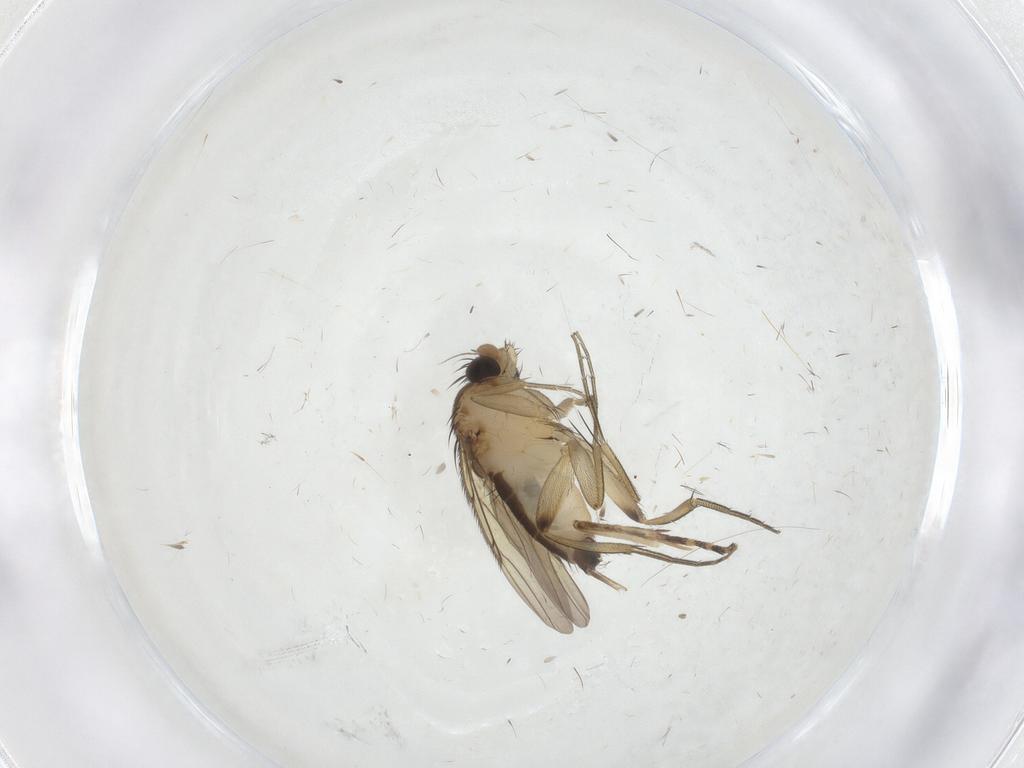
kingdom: Animalia
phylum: Arthropoda
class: Insecta
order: Diptera
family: Phoridae
